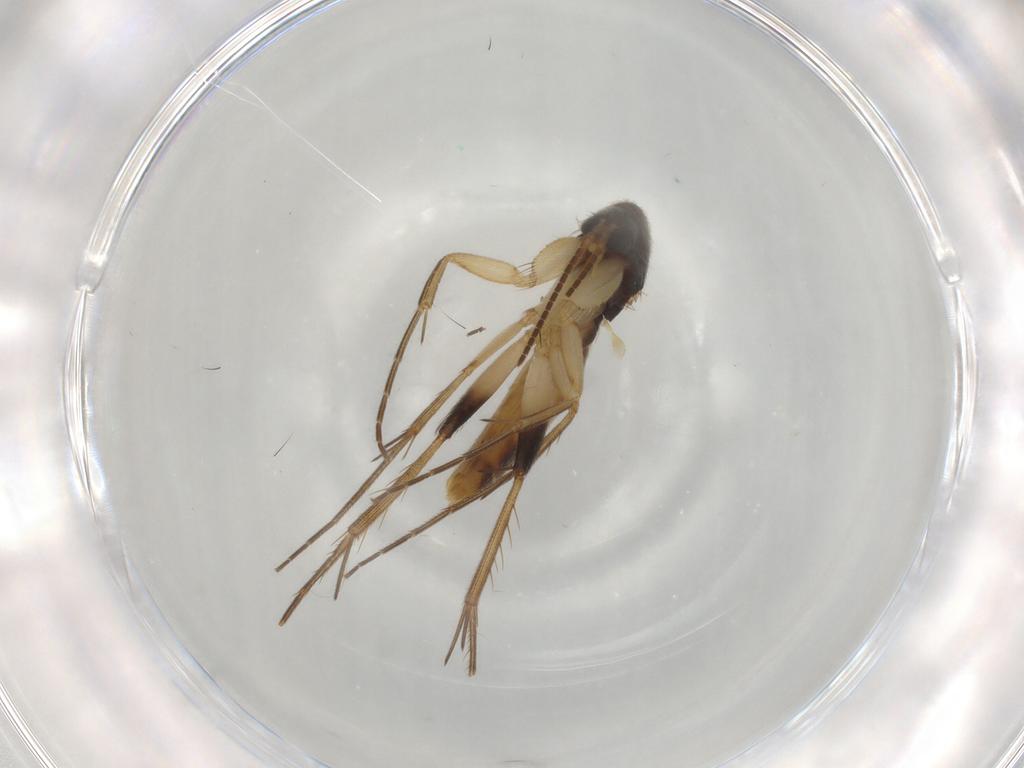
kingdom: Animalia
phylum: Arthropoda
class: Insecta
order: Diptera
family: Sciaridae
